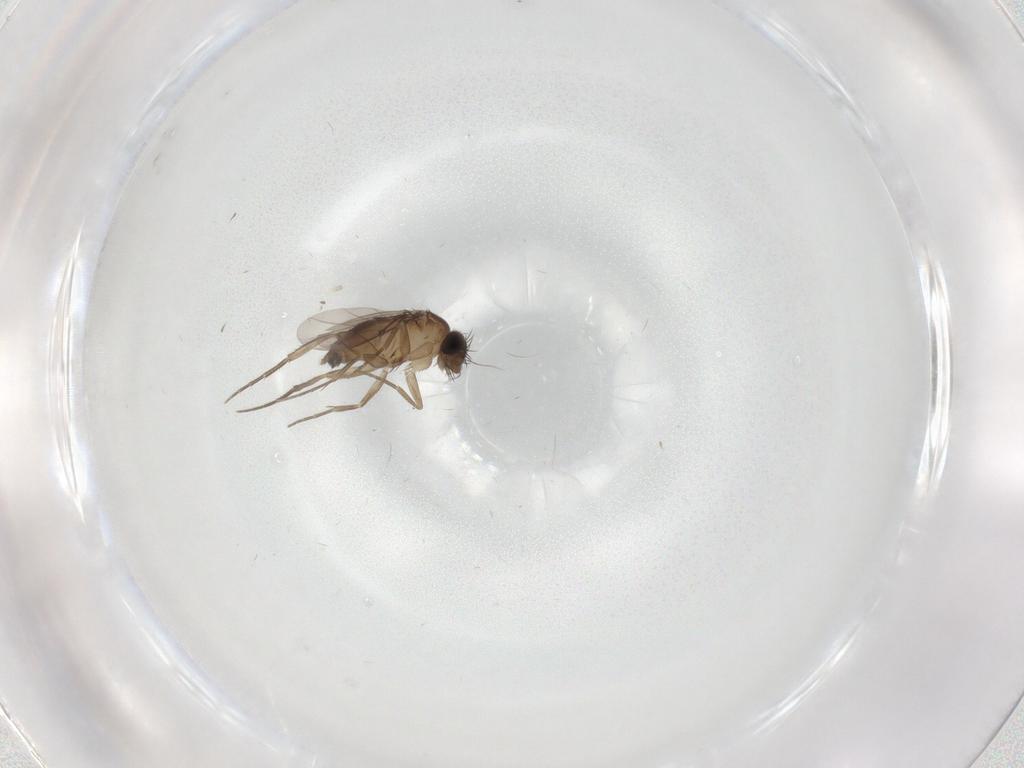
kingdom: Animalia
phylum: Arthropoda
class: Insecta
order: Diptera
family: Phoridae
